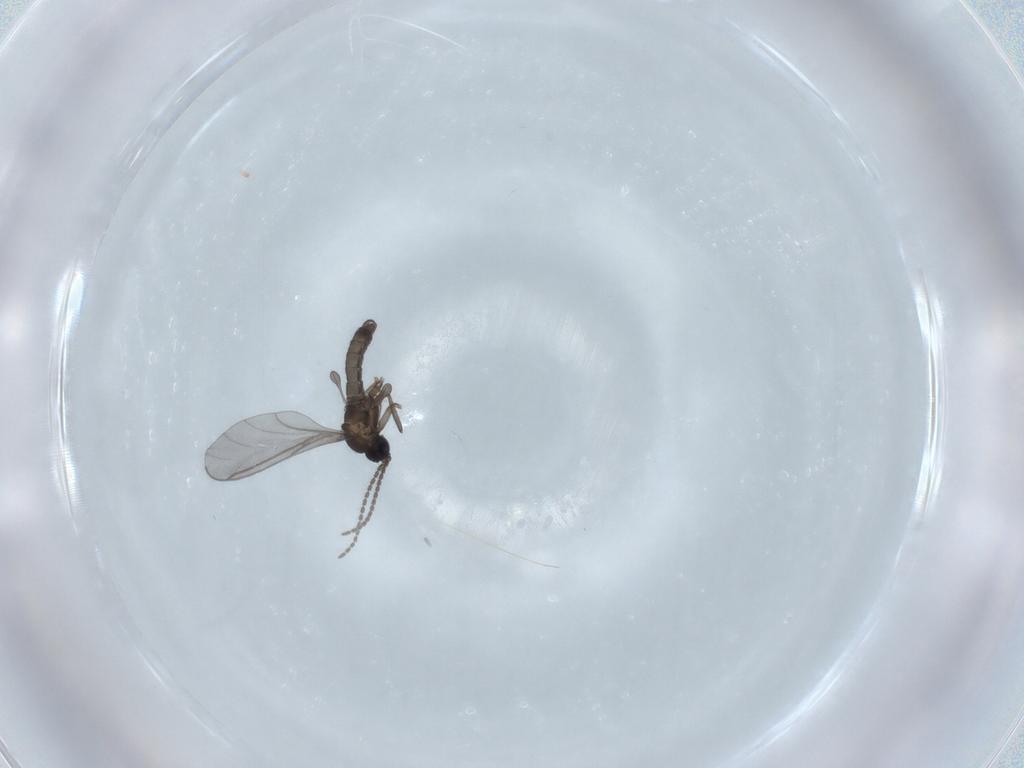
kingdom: Animalia
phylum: Arthropoda
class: Insecta
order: Diptera
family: Sciaridae
